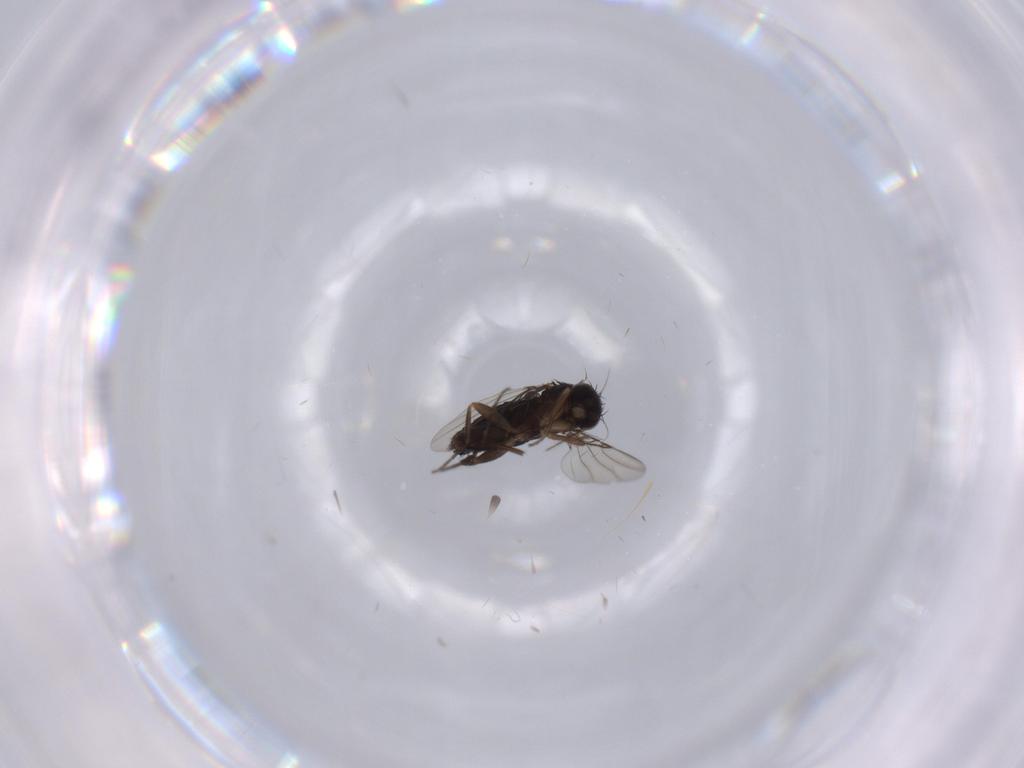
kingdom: Animalia
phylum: Arthropoda
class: Insecta
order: Diptera
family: Sciaridae
